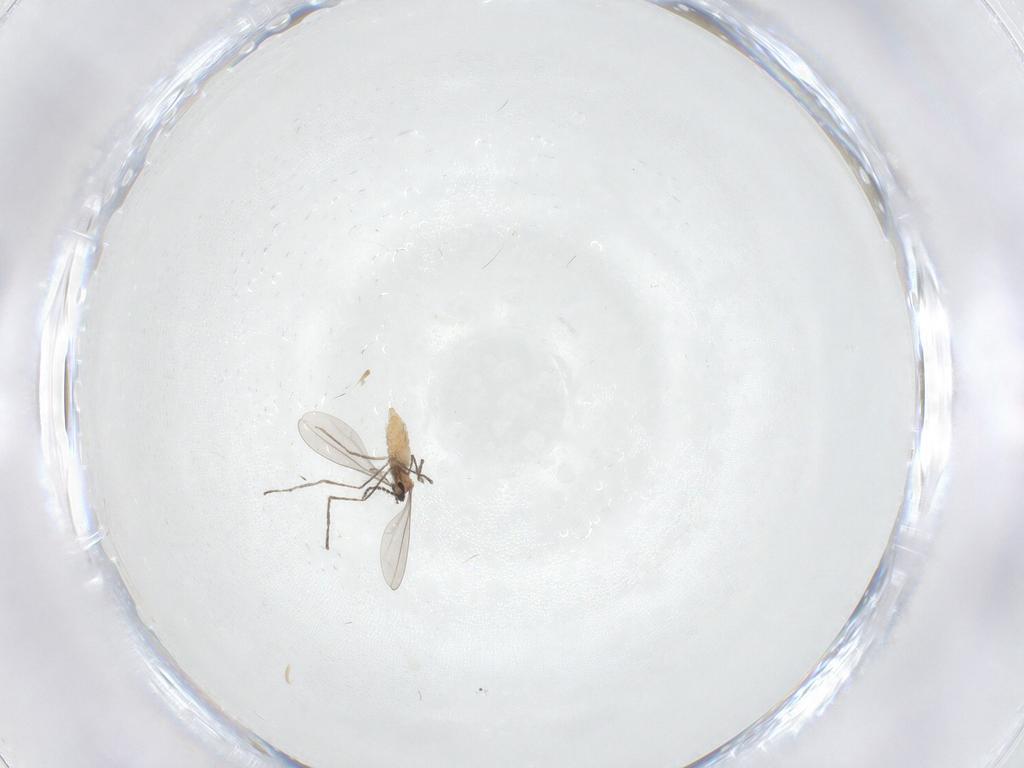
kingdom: Animalia
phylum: Arthropoda
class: Insecta
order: Diptera
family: Cecidomyiidae
